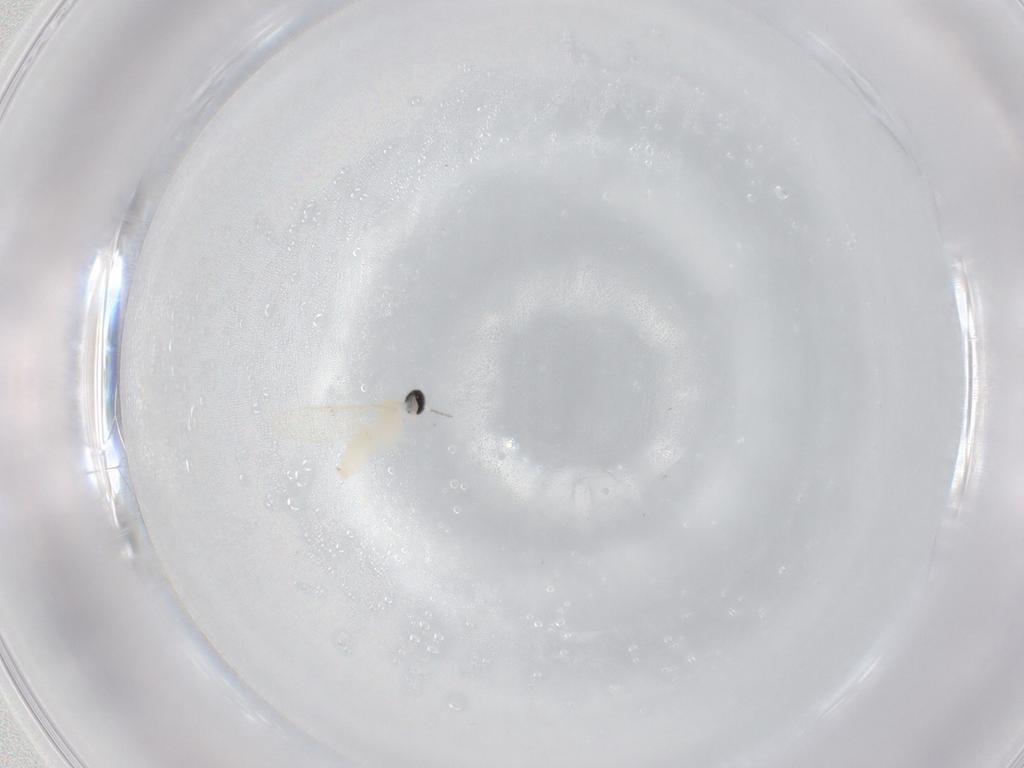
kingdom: Animalia
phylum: Arthropoda
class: Insecta
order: Diptera
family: Cecidomyiidae
